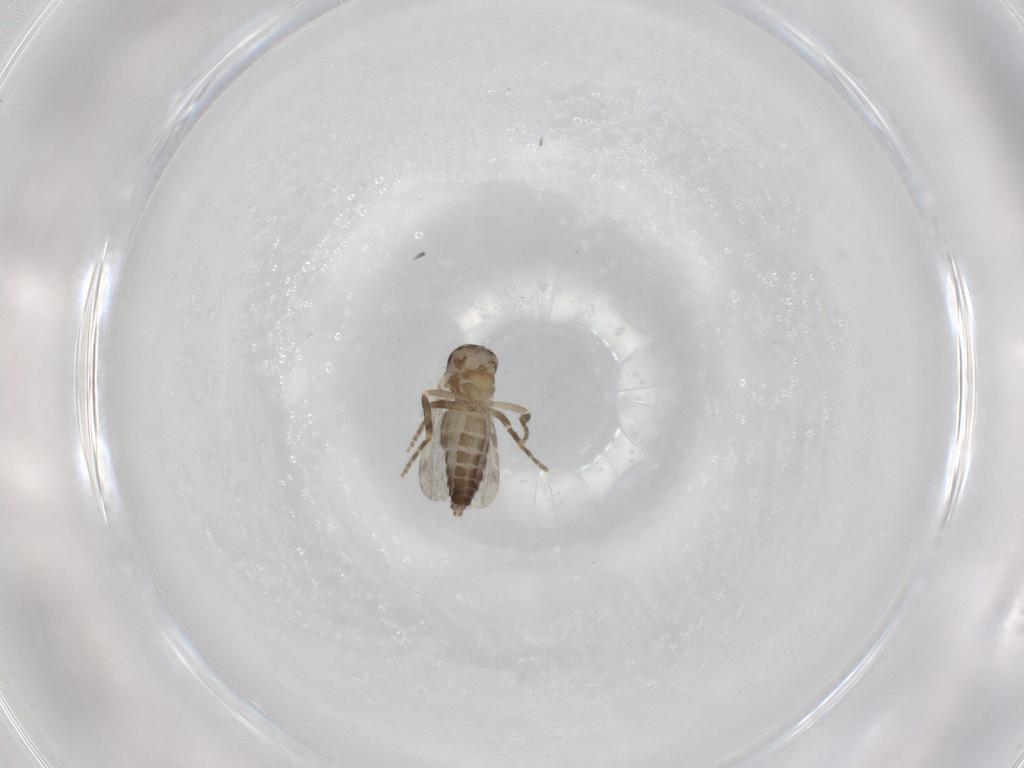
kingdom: Animalia
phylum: Arthropoda
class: Insecta
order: Diptera
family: Ceratopogonidae
